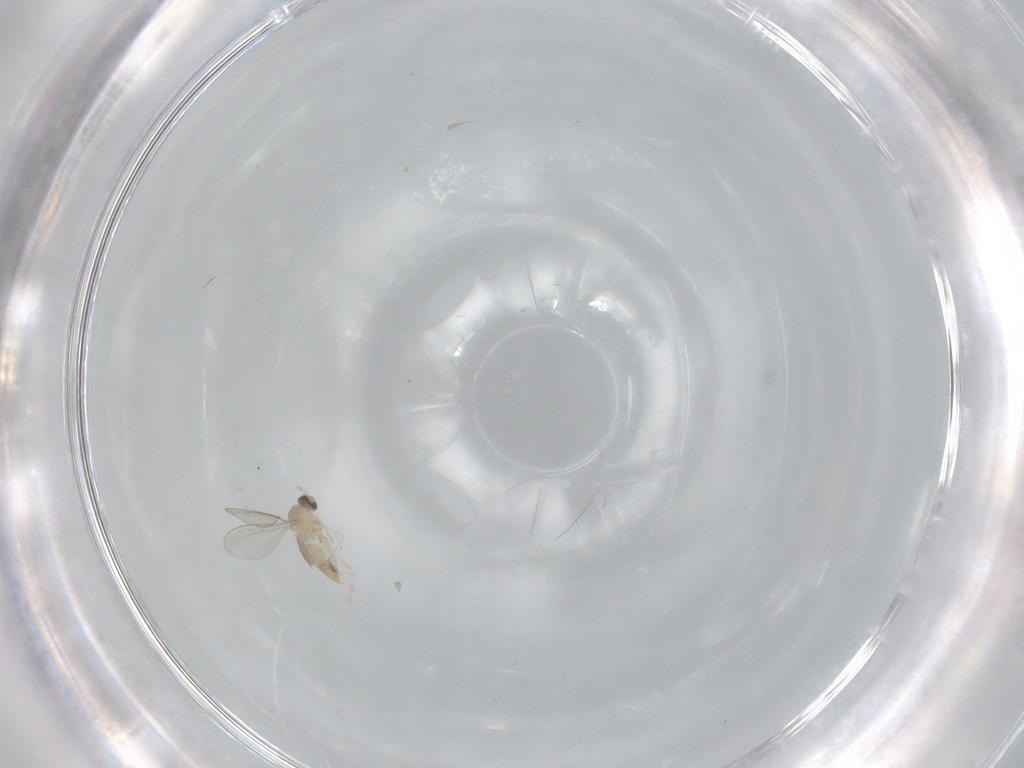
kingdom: Animalia
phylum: Arthropoda
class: Insecta
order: Diptera
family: Cecidomyiidae
